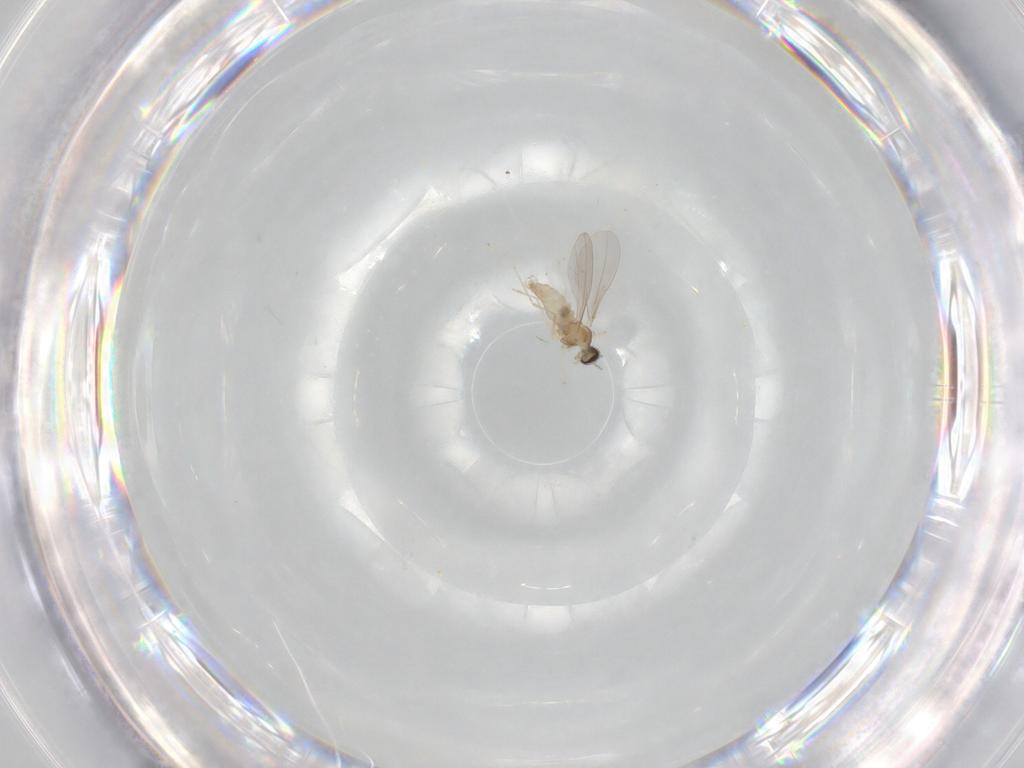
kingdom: Animalia
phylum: Arthropoda
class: Insecta
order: Diptera
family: Cecidomyiidae
